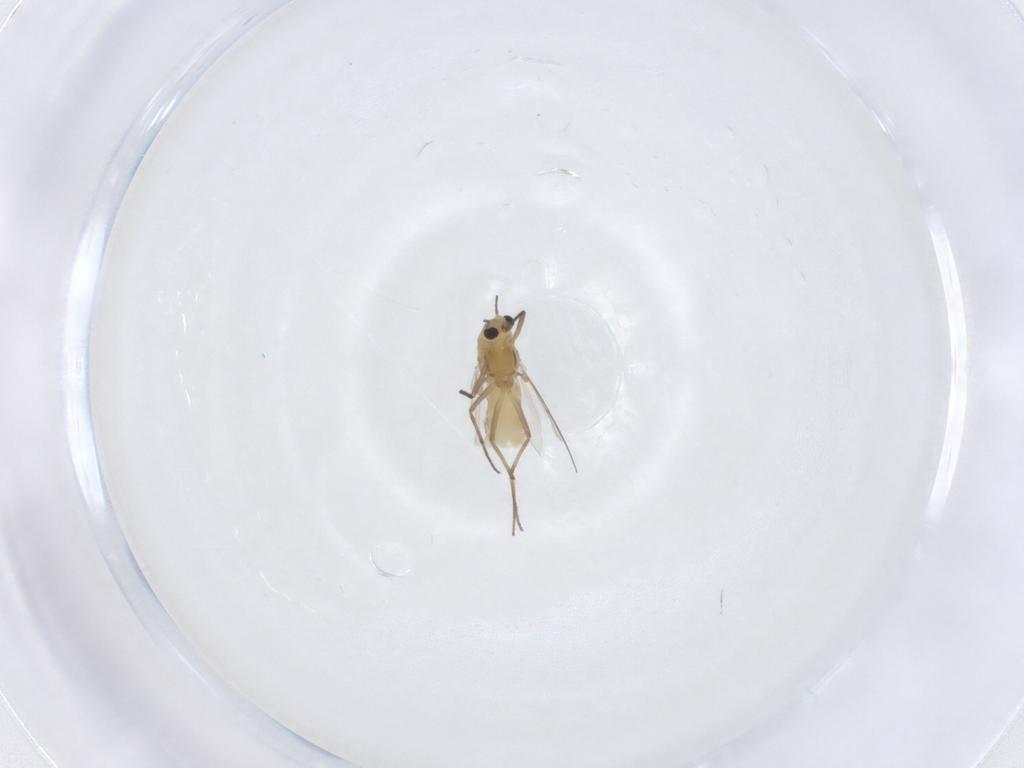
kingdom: Animalia
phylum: Arthropoda
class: Insecta
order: Diptera
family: Chironomidae
